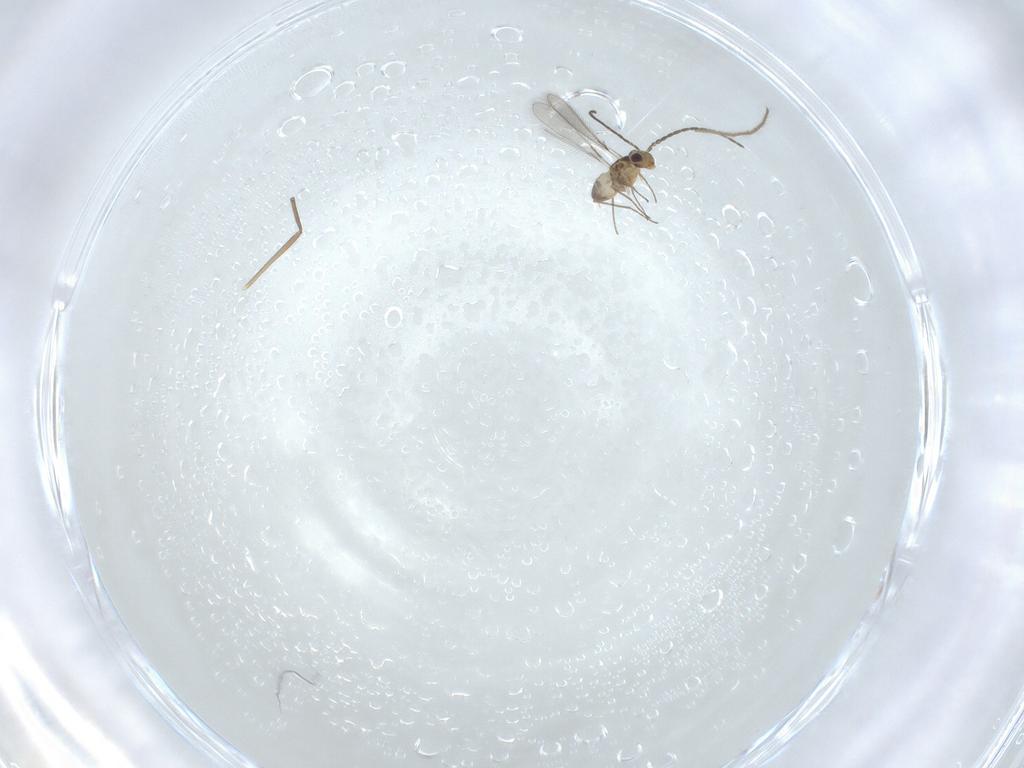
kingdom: Animalia
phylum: Arthropoda
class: Insecta
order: Hymenoptera
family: Mymaridae
